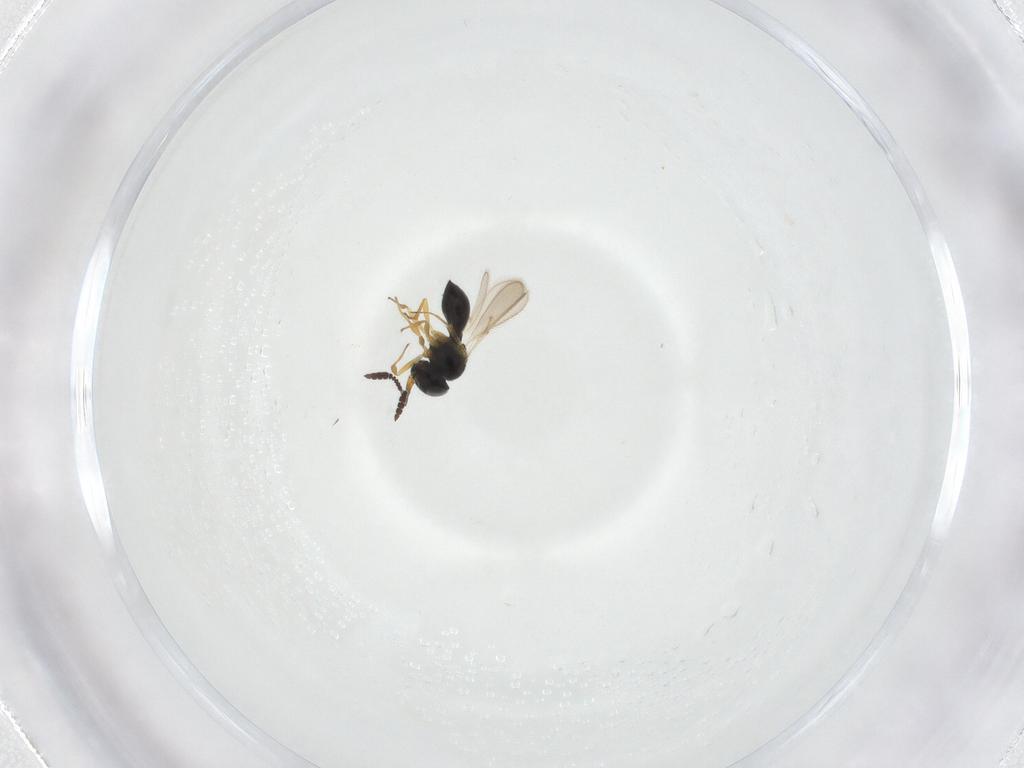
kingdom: Animalia
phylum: Arthropoda
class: Insecta
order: Hymenoptera
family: Scelionidae
